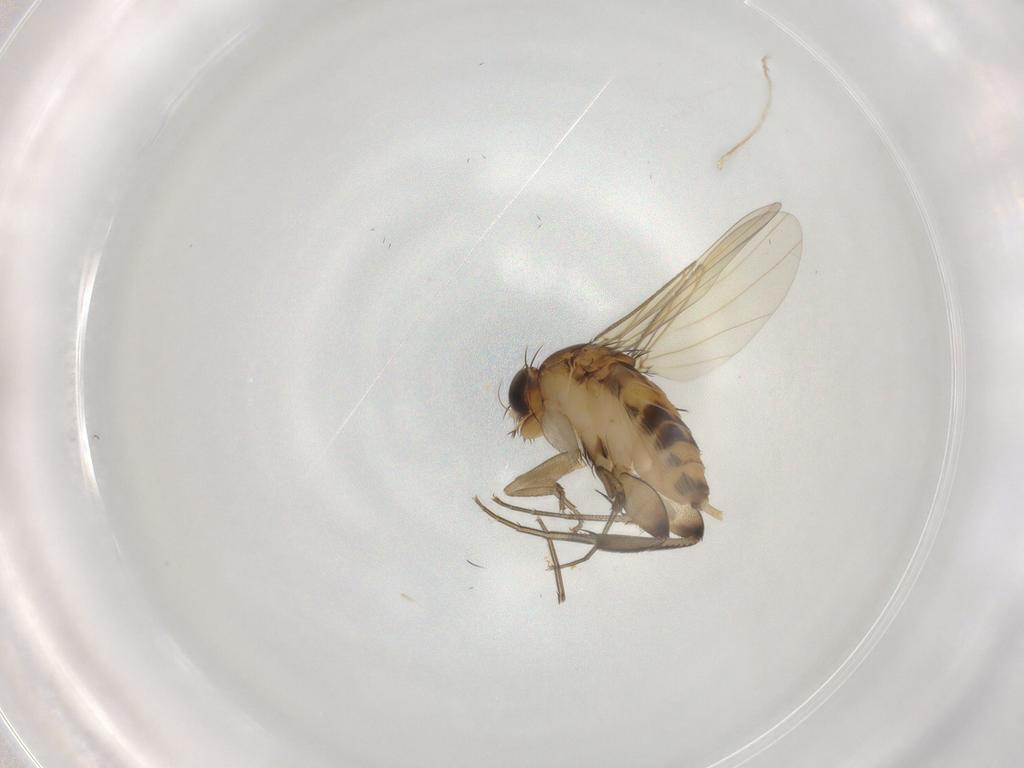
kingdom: Animalia
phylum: Arthropoda
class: Insecta
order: Diptera
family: Phoridae
